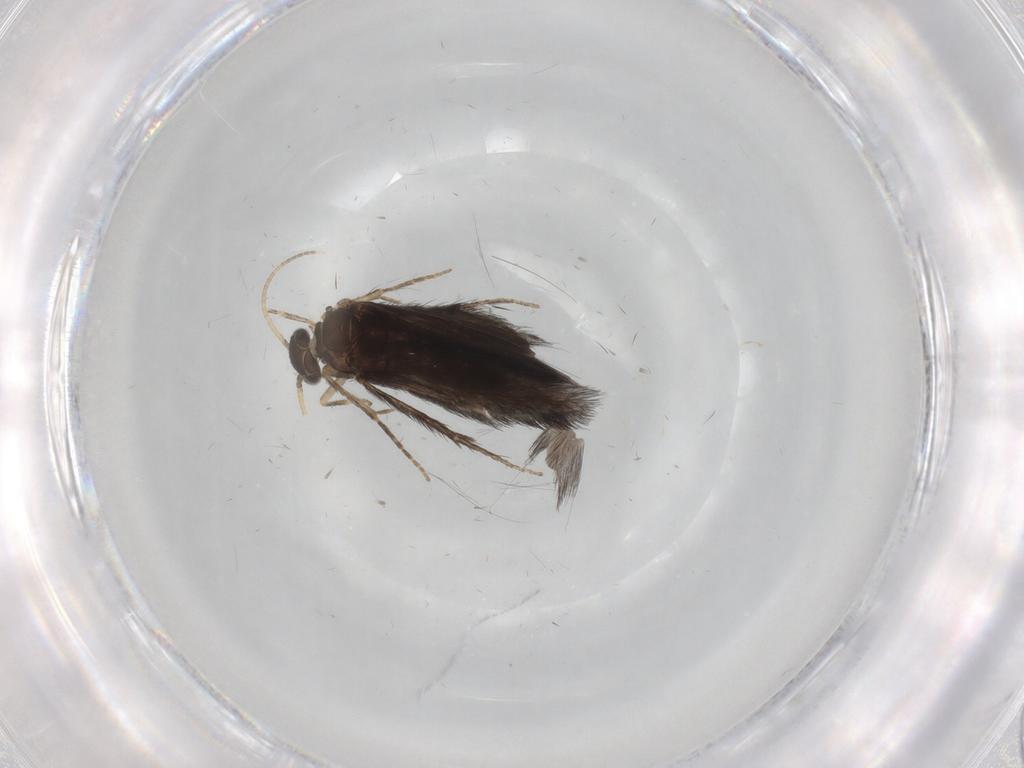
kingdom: Animalia
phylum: Arthropoda
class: Insecta
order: Trichoptera
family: Hydroptilidae
